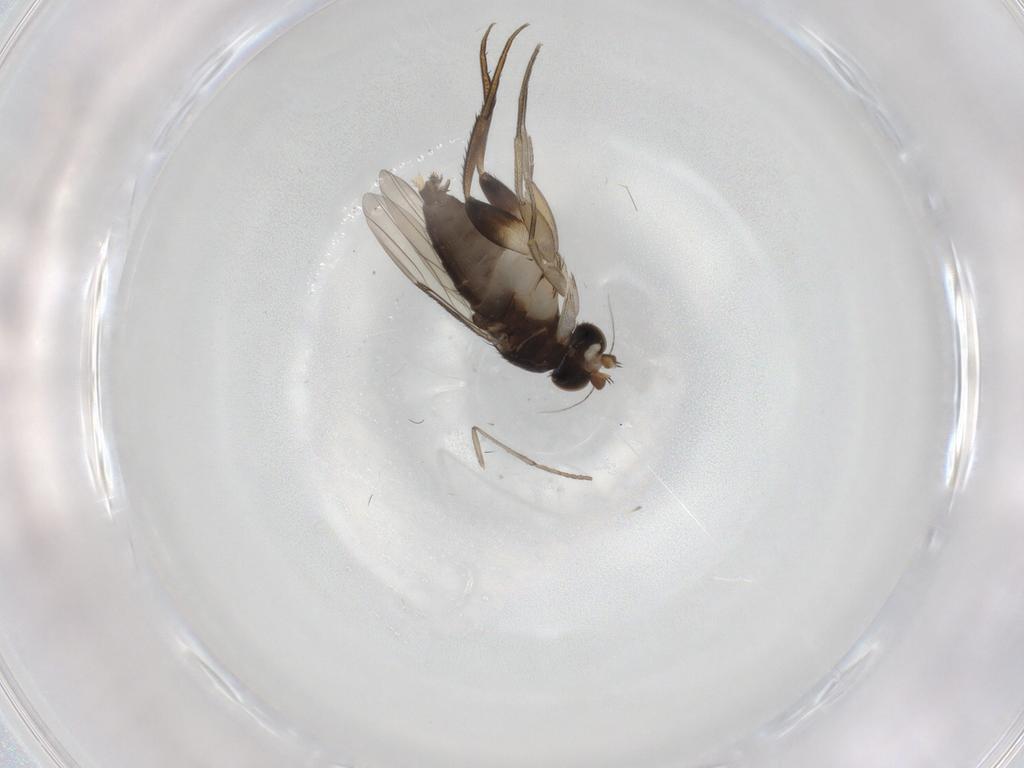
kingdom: Animalia
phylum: Arthropoda
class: Insecta
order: Diptera
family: Phoridae
